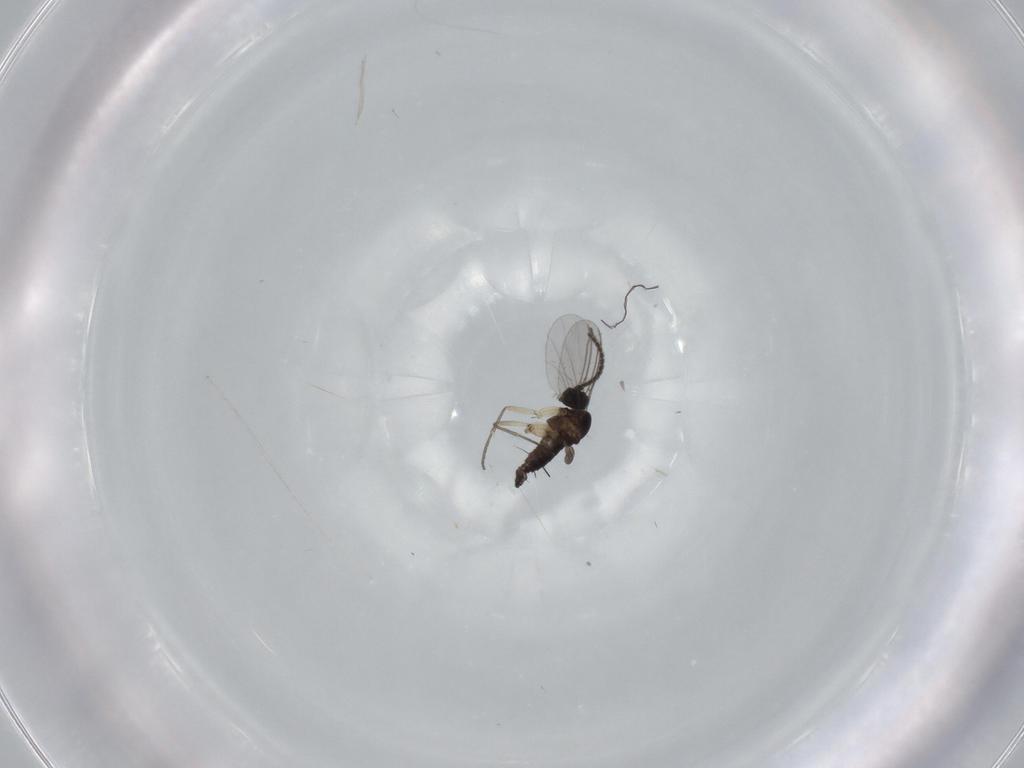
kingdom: Animalia
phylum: Arthropoda
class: Insecta
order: Diptera
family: Sciaridae
